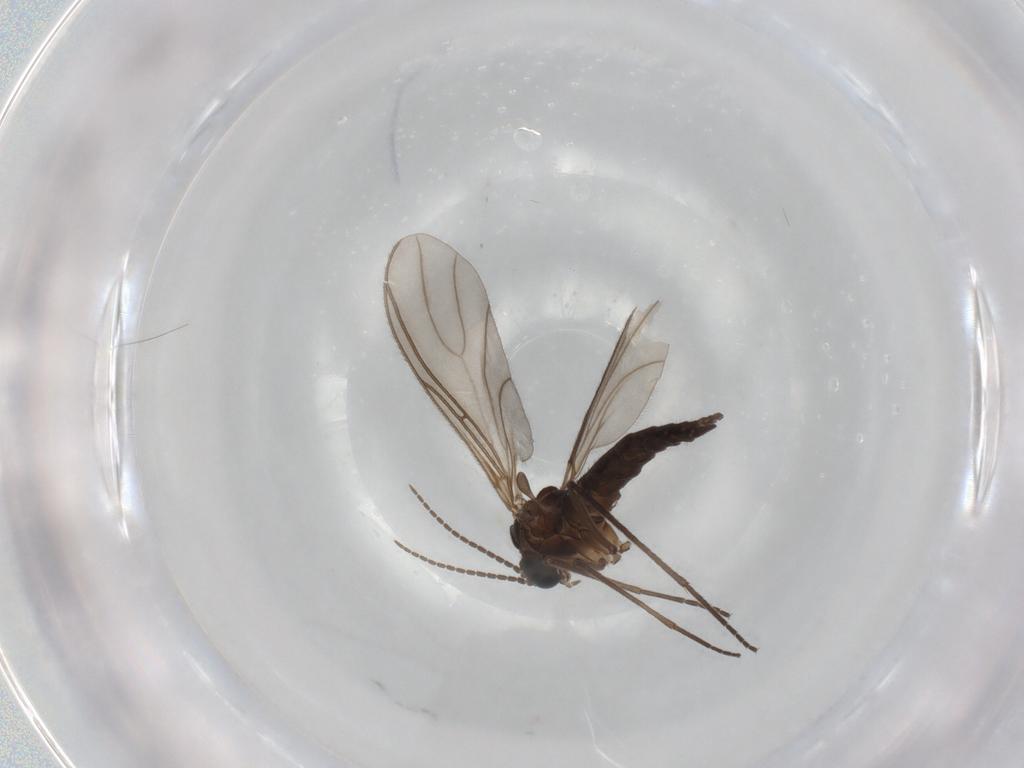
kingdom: Animalia
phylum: Arthropoda
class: Insecta
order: Diptera
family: Sciaridae
